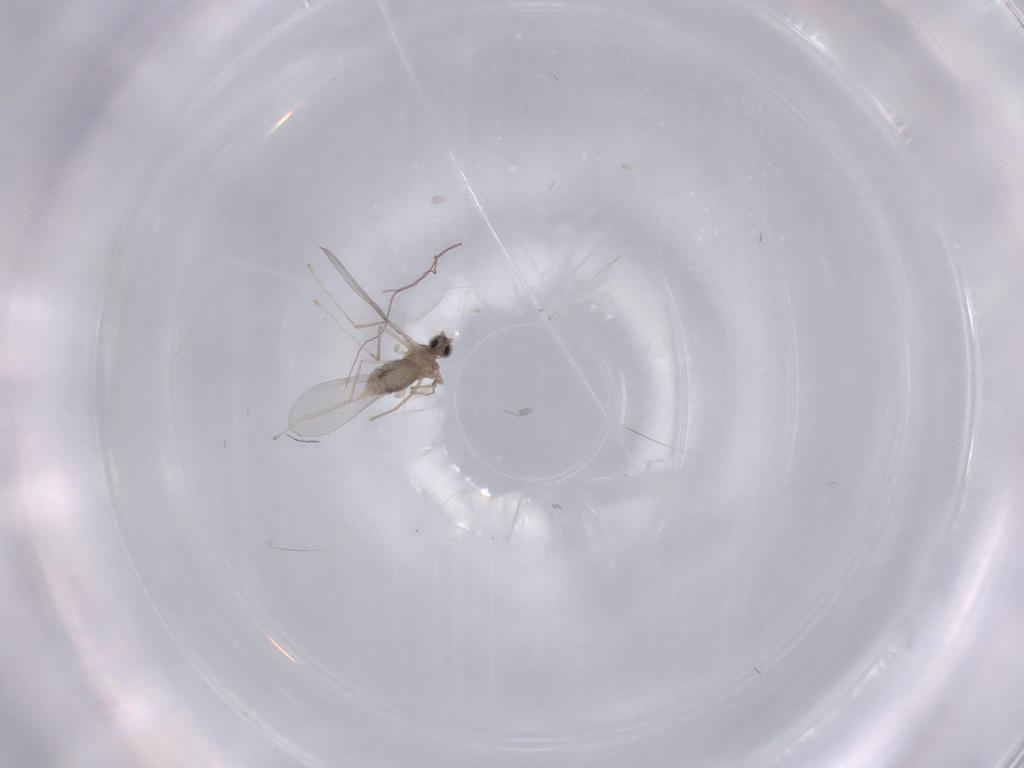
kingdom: Animalia
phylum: Arthropoda
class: Insecta
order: Diptera
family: Cecidomyiidae
